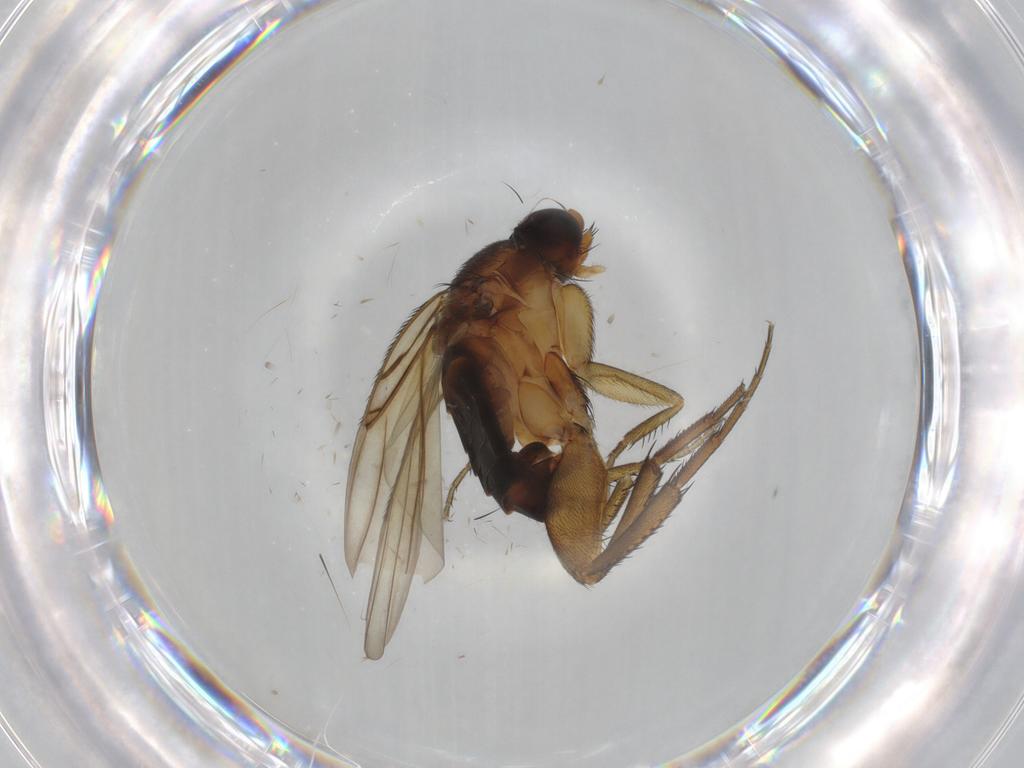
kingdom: Animalia
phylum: Arthropoda
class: Insecta
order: Diptera
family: Phoridae
